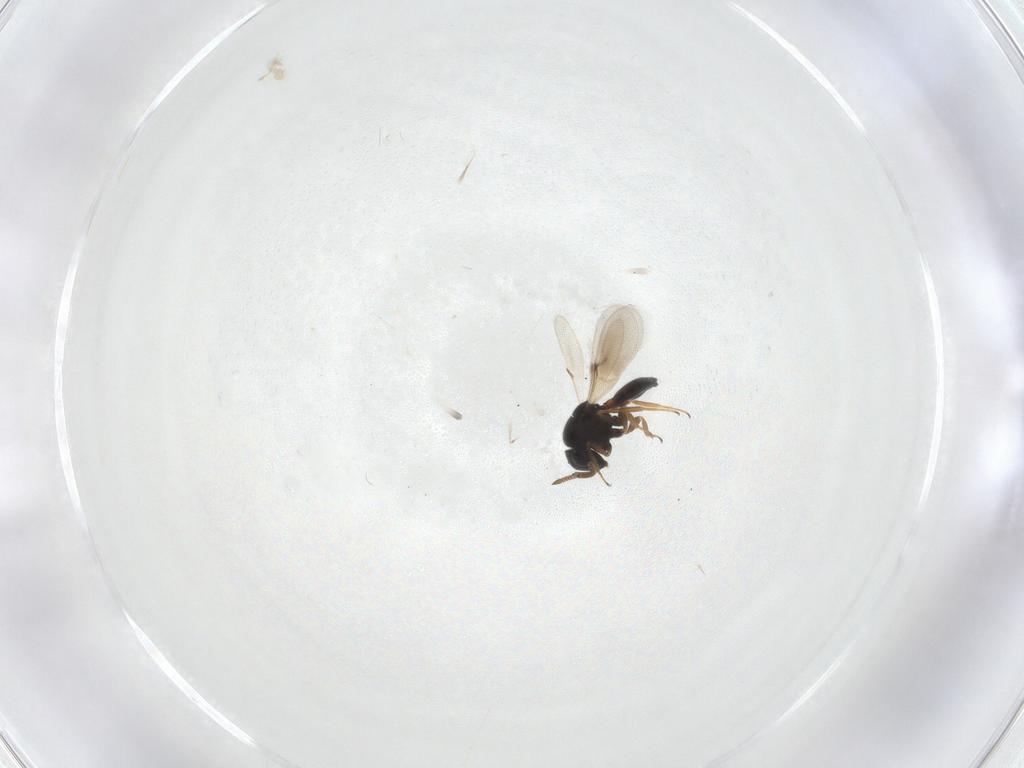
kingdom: Animalia
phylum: Arthropoda
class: Insecta
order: Hymenoptera
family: Scelionidae
